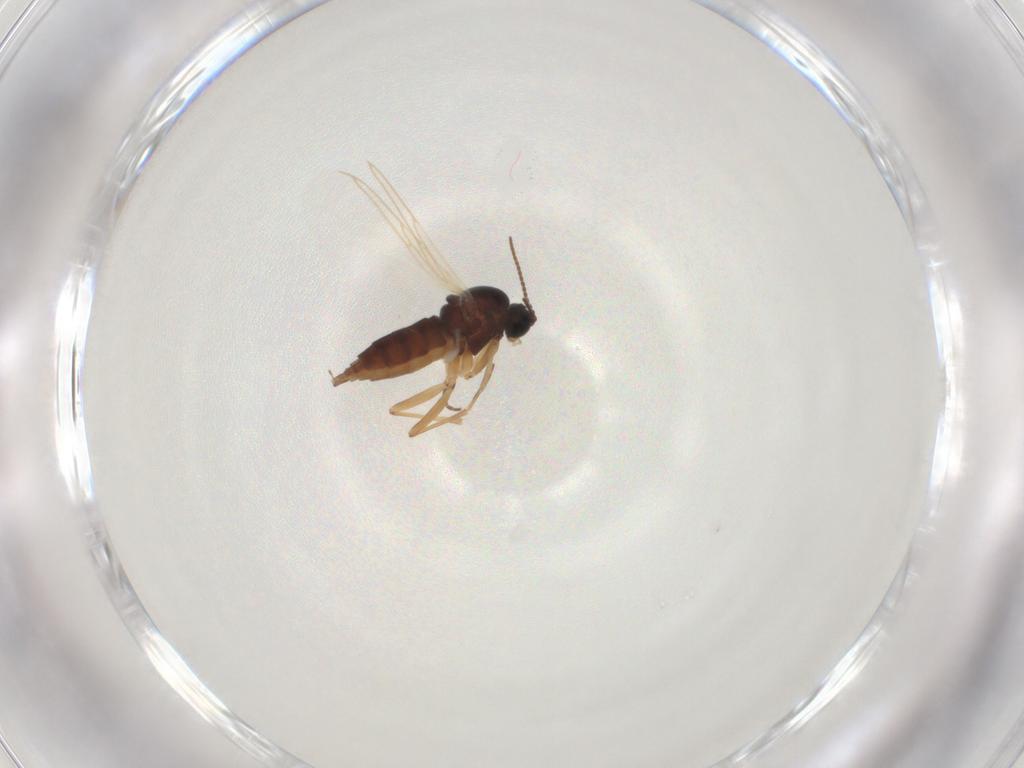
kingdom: Animalia
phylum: Arthropoda
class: Insecta
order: Diptera
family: Sciaridae
